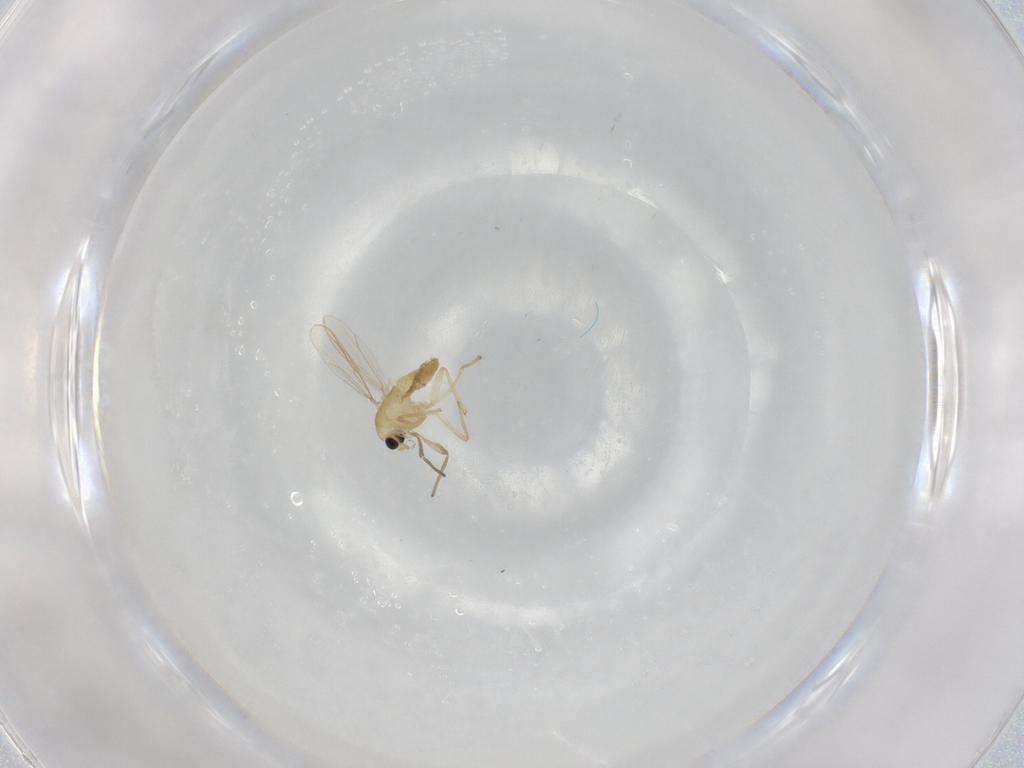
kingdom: Animalia
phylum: Arthropoda
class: Insecta
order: Diptera
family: Chironomidae
